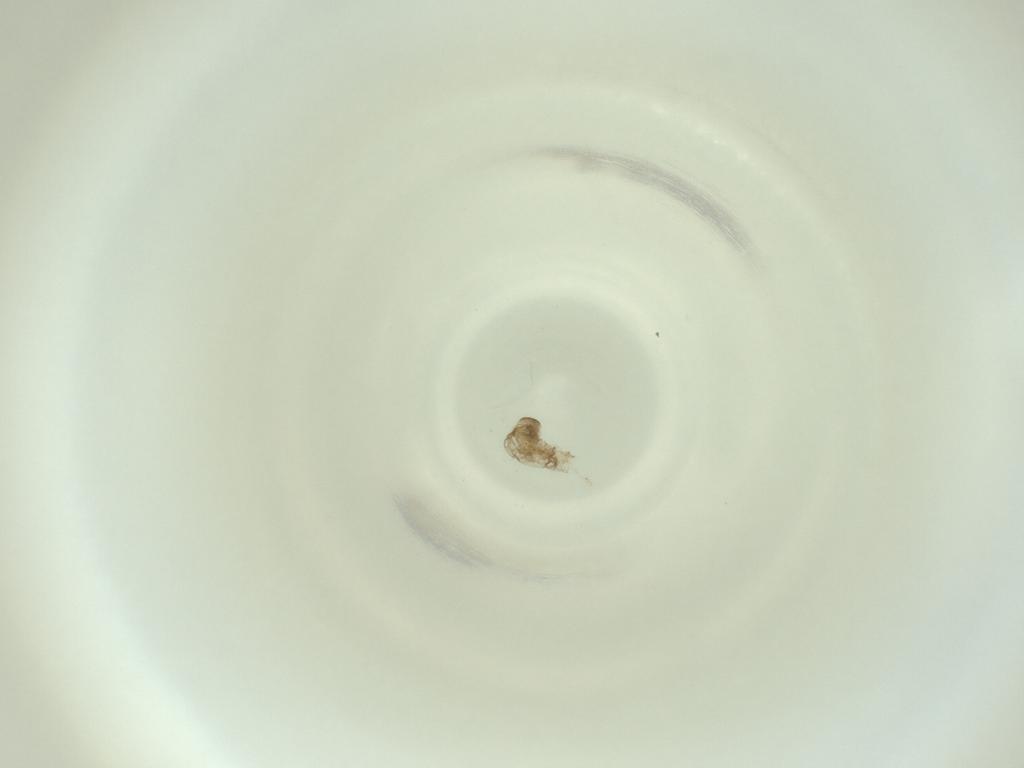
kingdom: Animalia
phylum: Arthropoda
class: Insecta
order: Diptera
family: Cecidomyiidae
